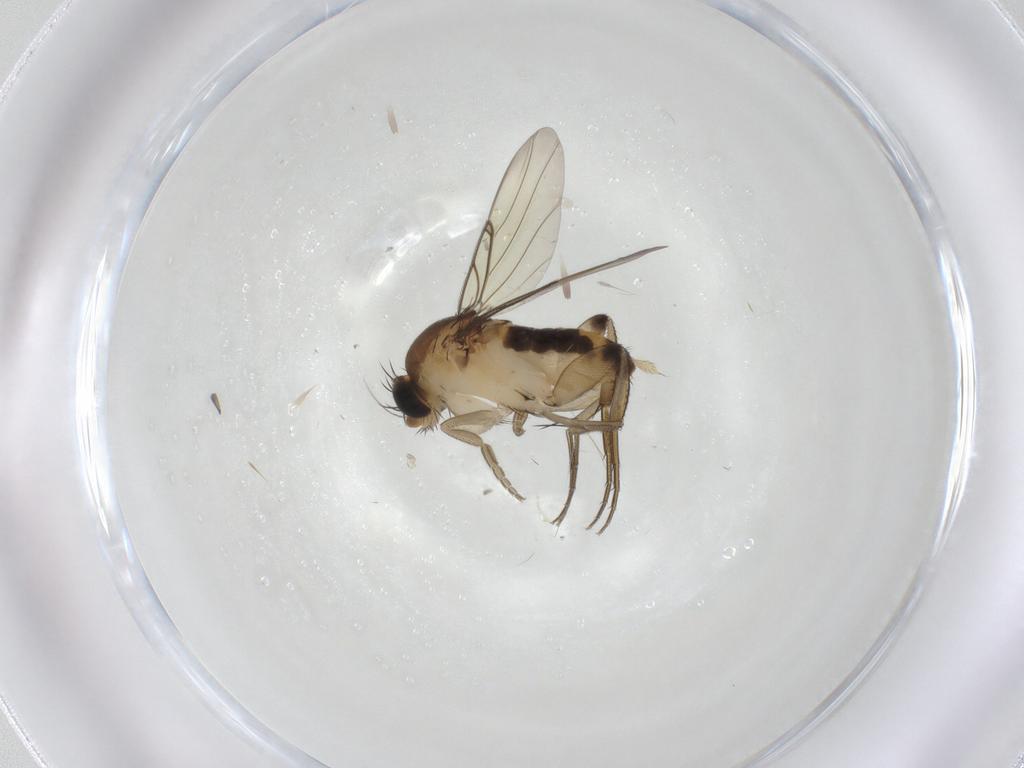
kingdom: Animalia
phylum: Arthropoda
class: Insecta
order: Diptera
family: Phoridae
